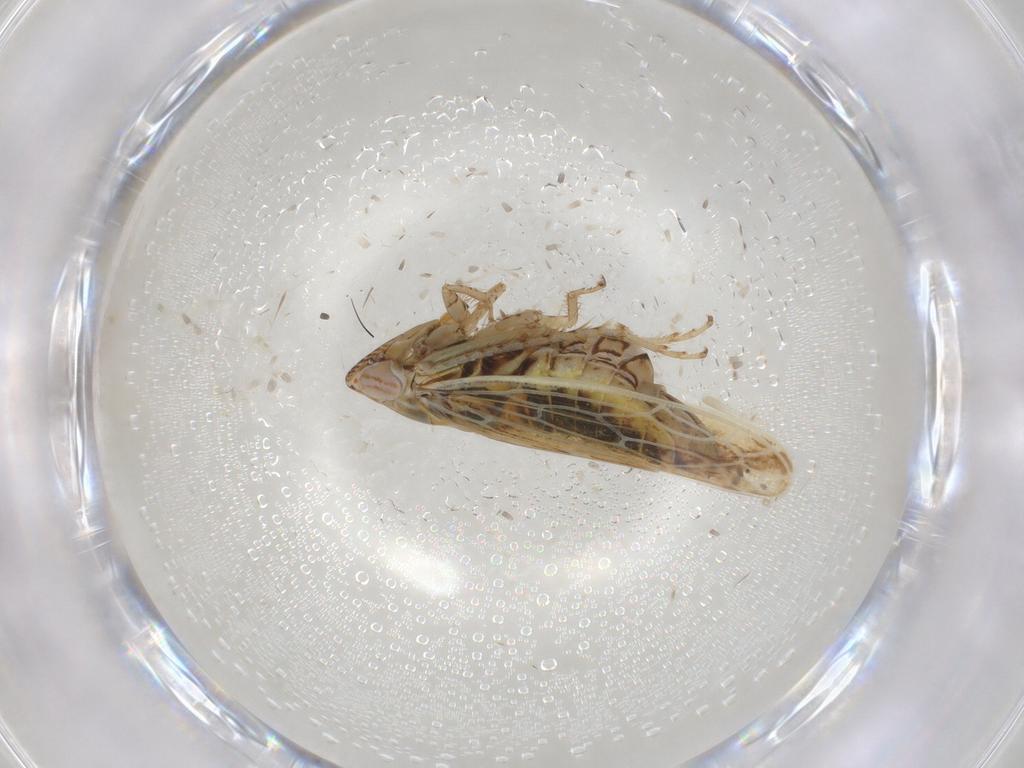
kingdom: Animalia
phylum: Arthropoda
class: Insecta
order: Hemiptera
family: Cicadellidae
